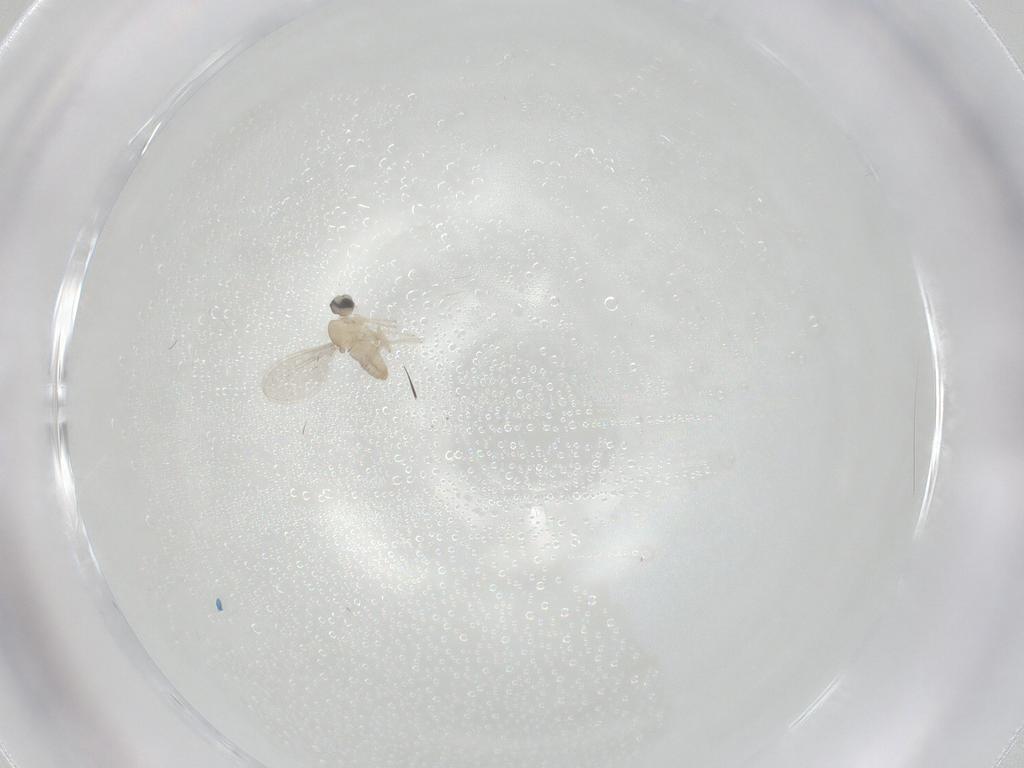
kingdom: Animalia
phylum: Arthropoda
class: Insecta
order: Diptera
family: Cecidomyiidae
